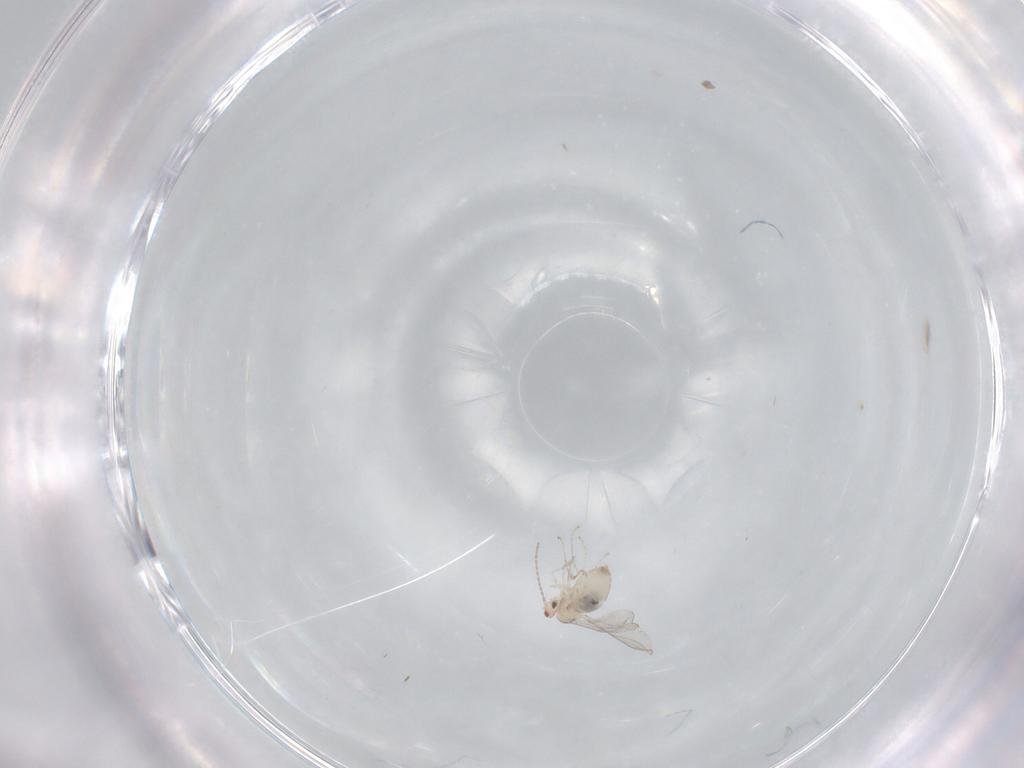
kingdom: Animalia
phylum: Arthropoda
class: Insecta
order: Diptera
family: Cecidomyiidae
